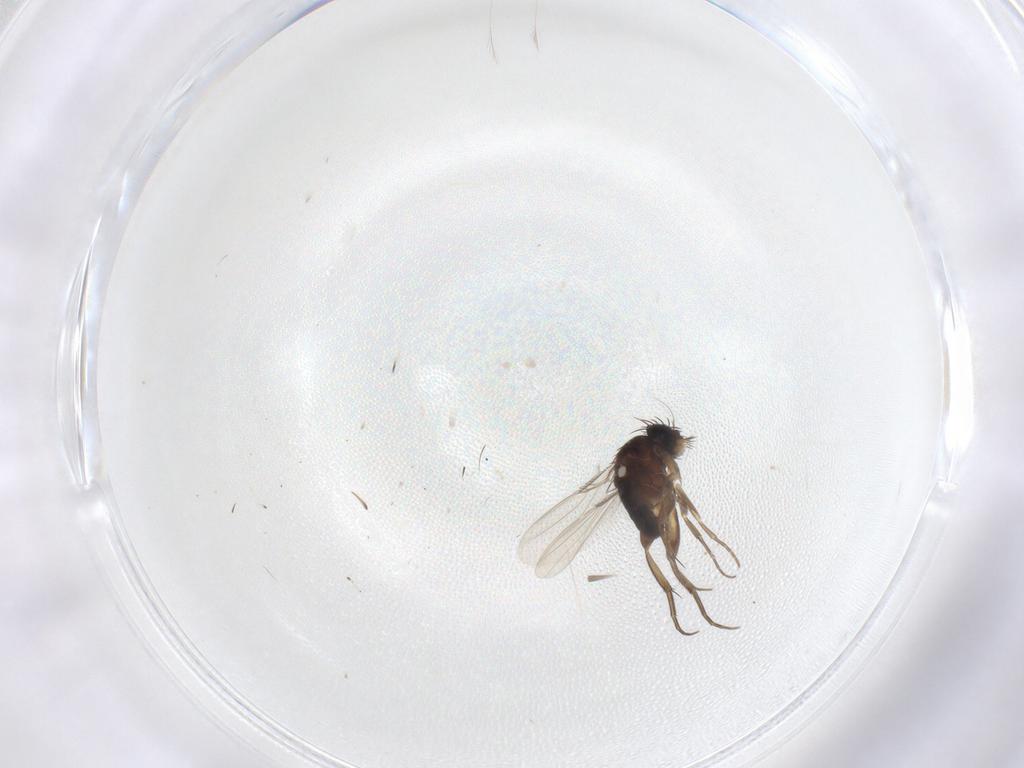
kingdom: Animalia
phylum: Arthropoda
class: Insecta
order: Diptera
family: Phoridae
